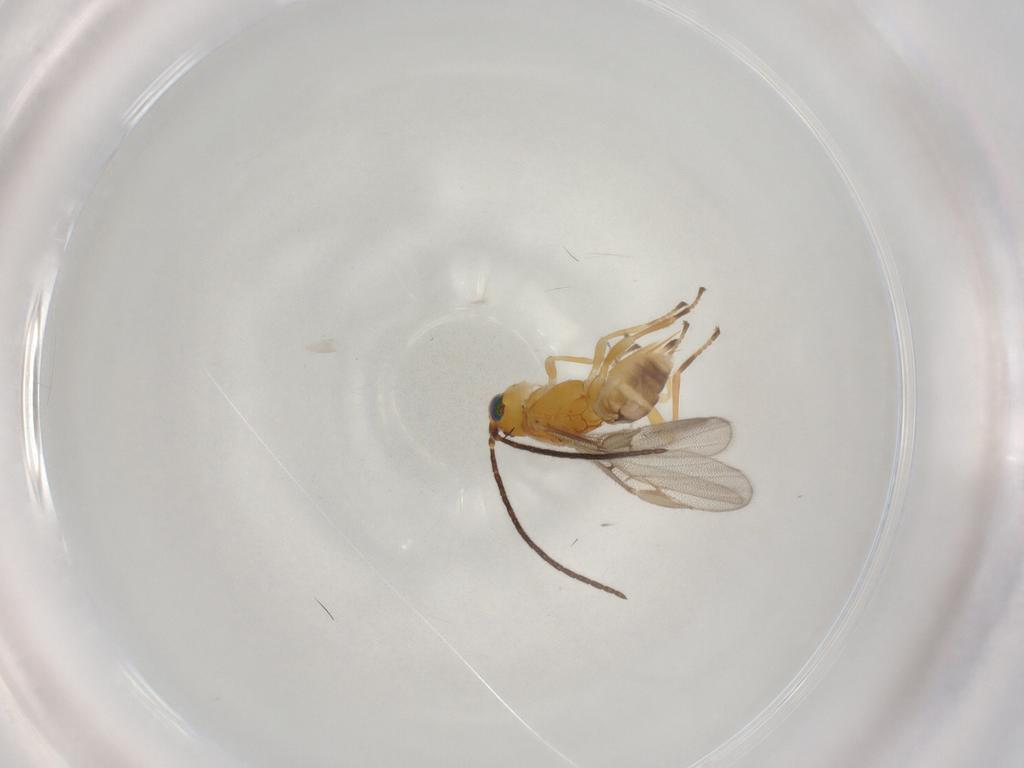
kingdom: Animalia
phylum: Arthropoda
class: Insecta
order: Hymenoptera
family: Braconidae
